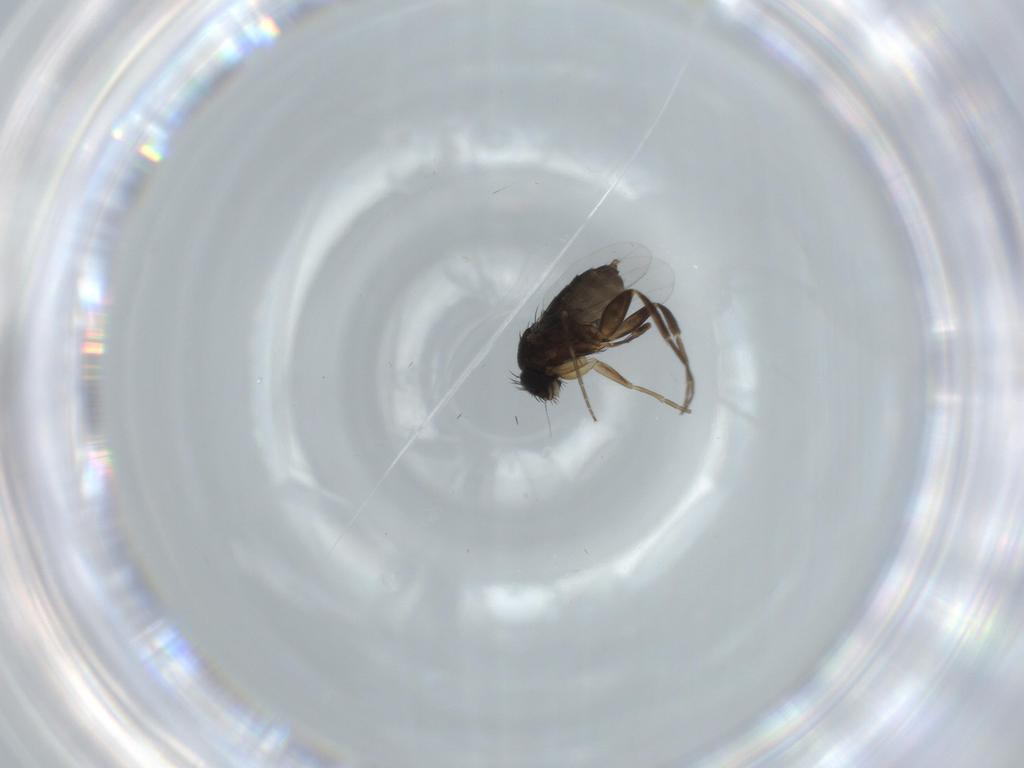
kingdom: Animalia
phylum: Arthropoda
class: Insecta
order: Diptera
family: Phoridae
